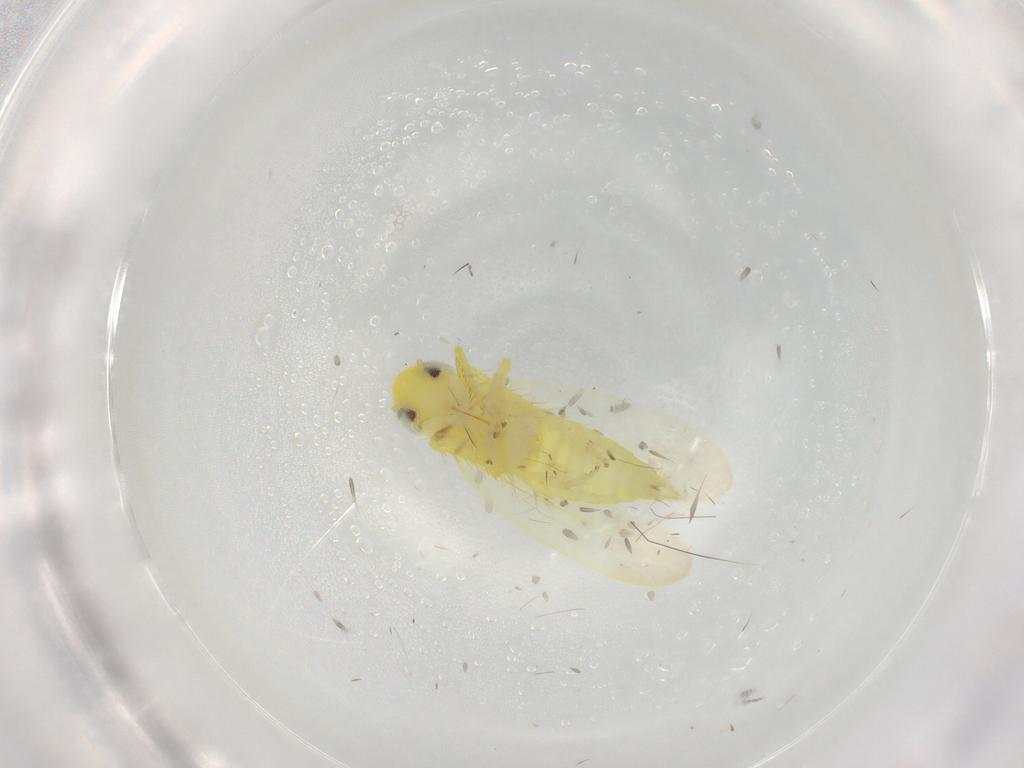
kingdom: Animalia
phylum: Arthropoda
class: Insecta
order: Hemiptera
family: Cicadellidae
